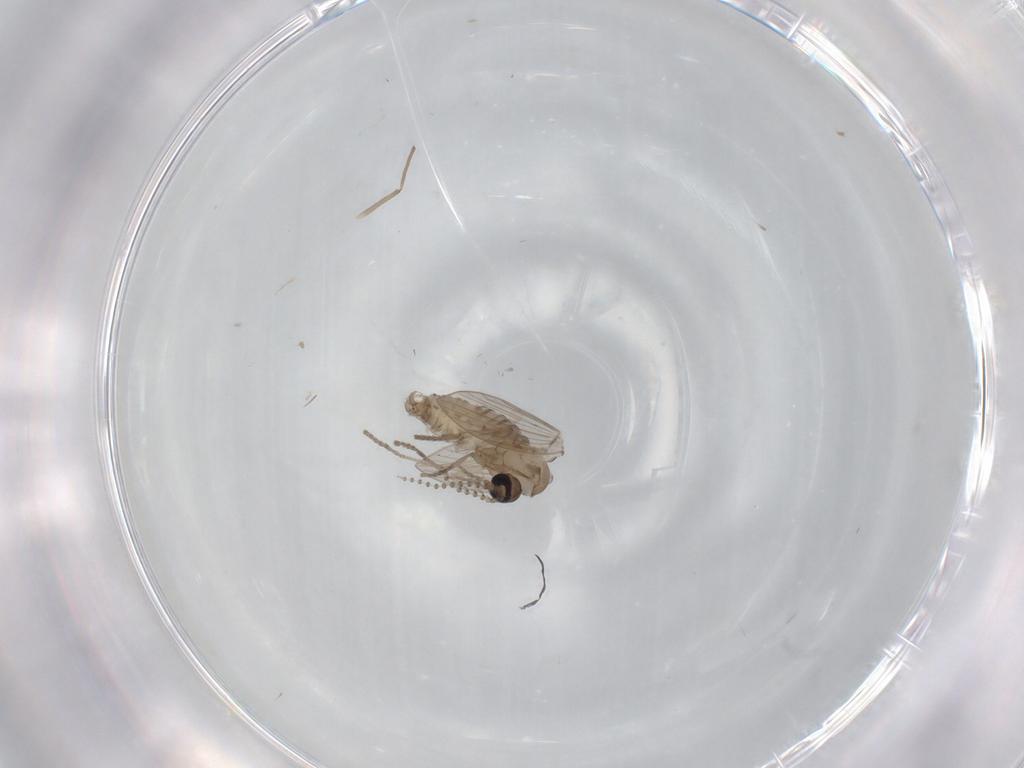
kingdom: Animalia
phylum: Arthropoda
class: Insecta
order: Diptera
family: Psychodidae
